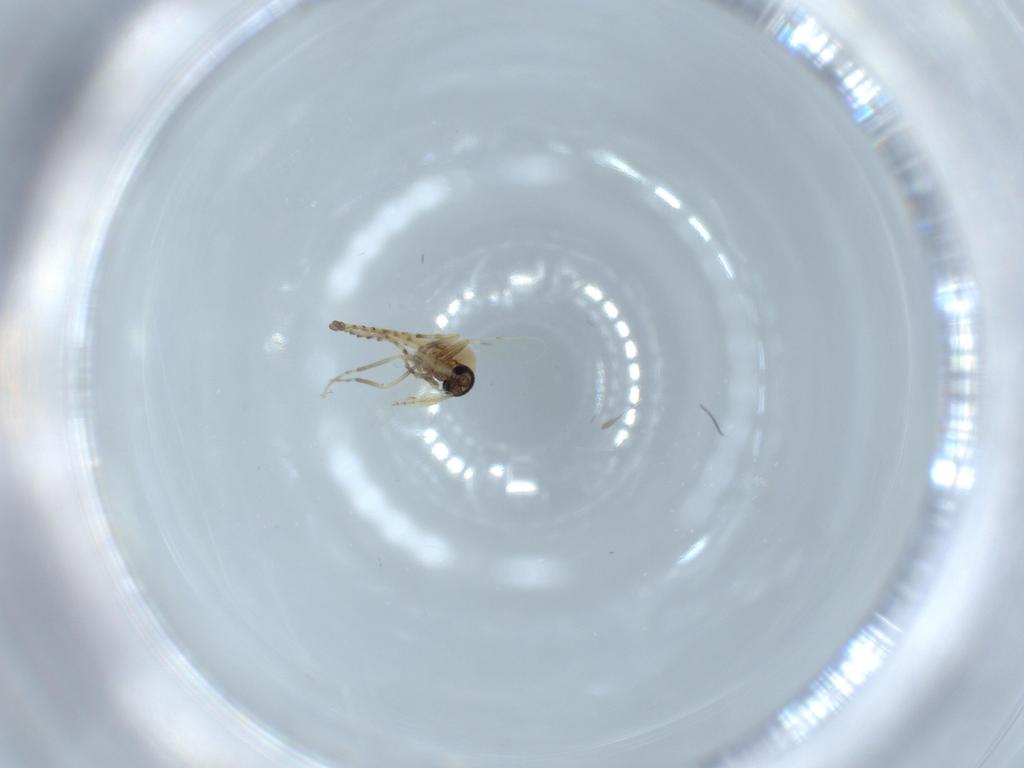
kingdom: Animalia
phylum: Arthropoda
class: Insecta
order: Diptera
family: Ceratopogonidae
